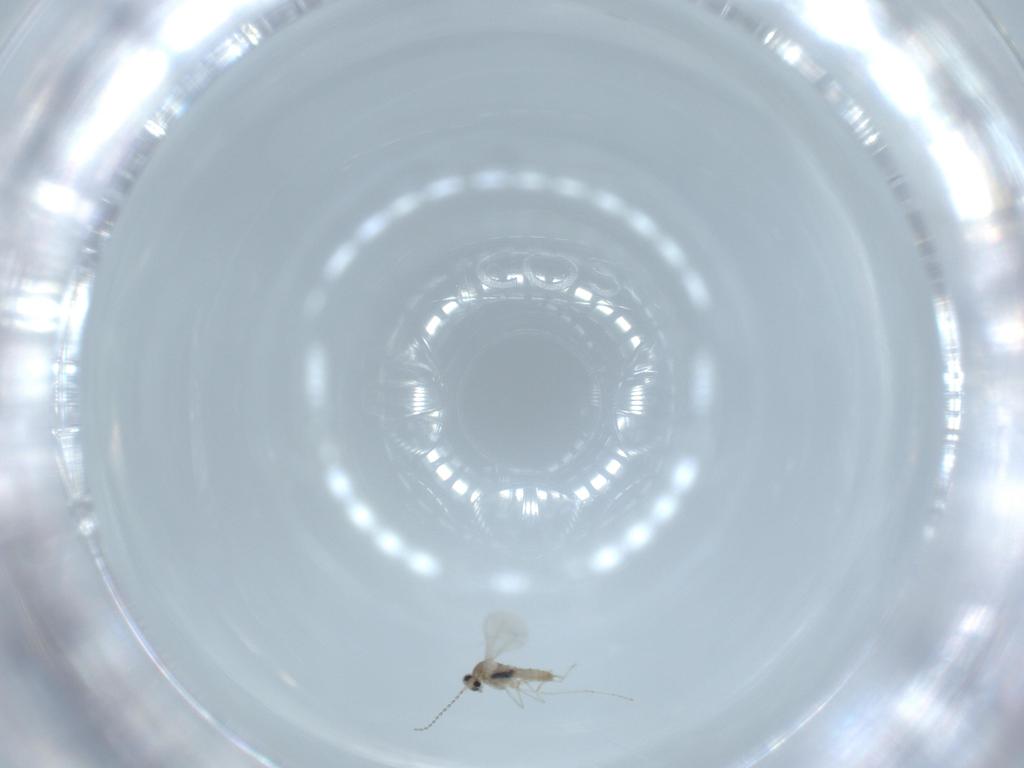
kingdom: Animalia
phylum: Arthropoda
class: Insecta
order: Diptera
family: Cecidomyiidae
